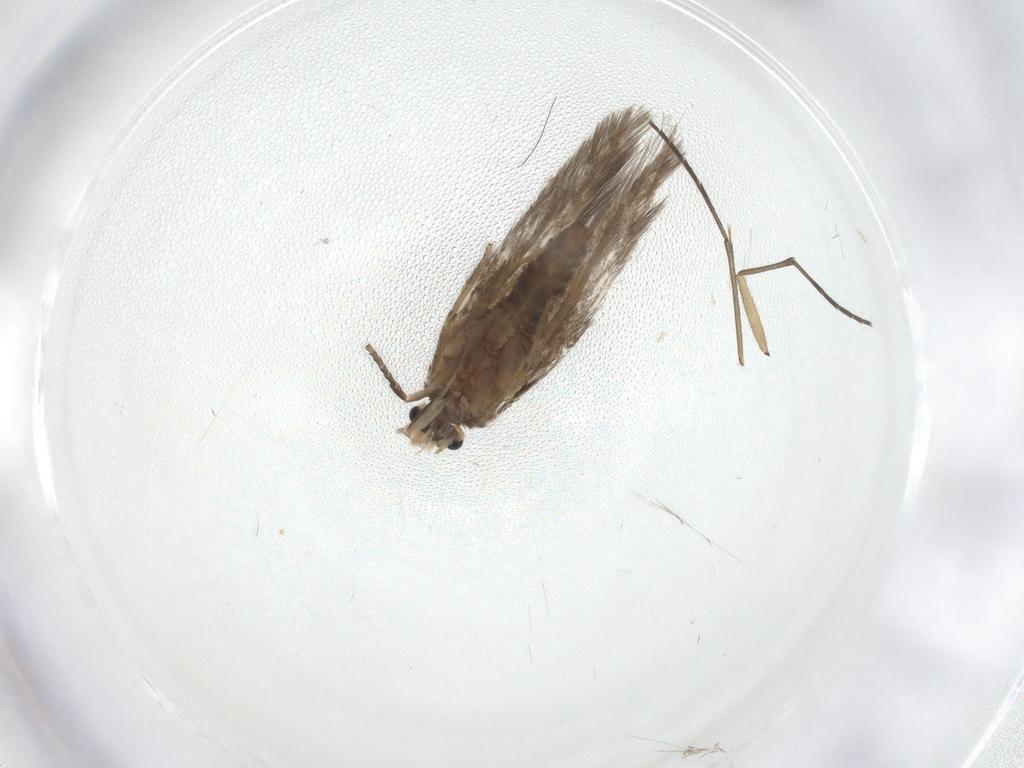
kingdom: Animalia
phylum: Arthropoda
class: Insecta
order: Lepidoptera
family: Nepticulidae
